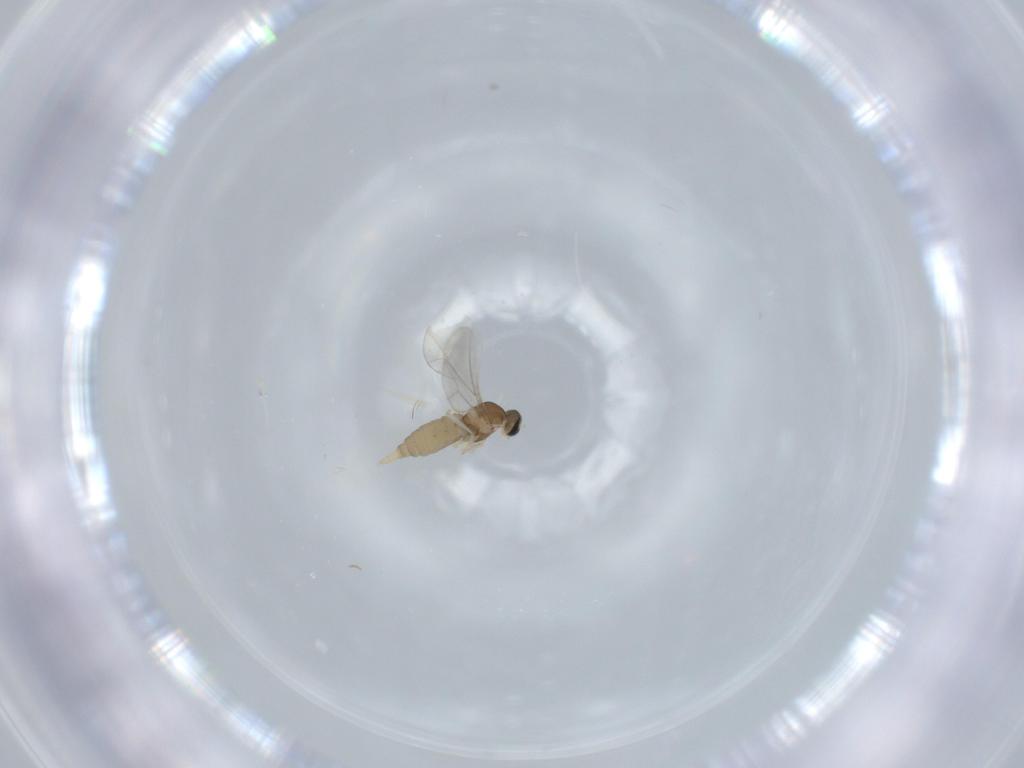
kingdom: Animalia
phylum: Arthropoda
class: Insecta
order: Diptera
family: Cecidomyiidae
